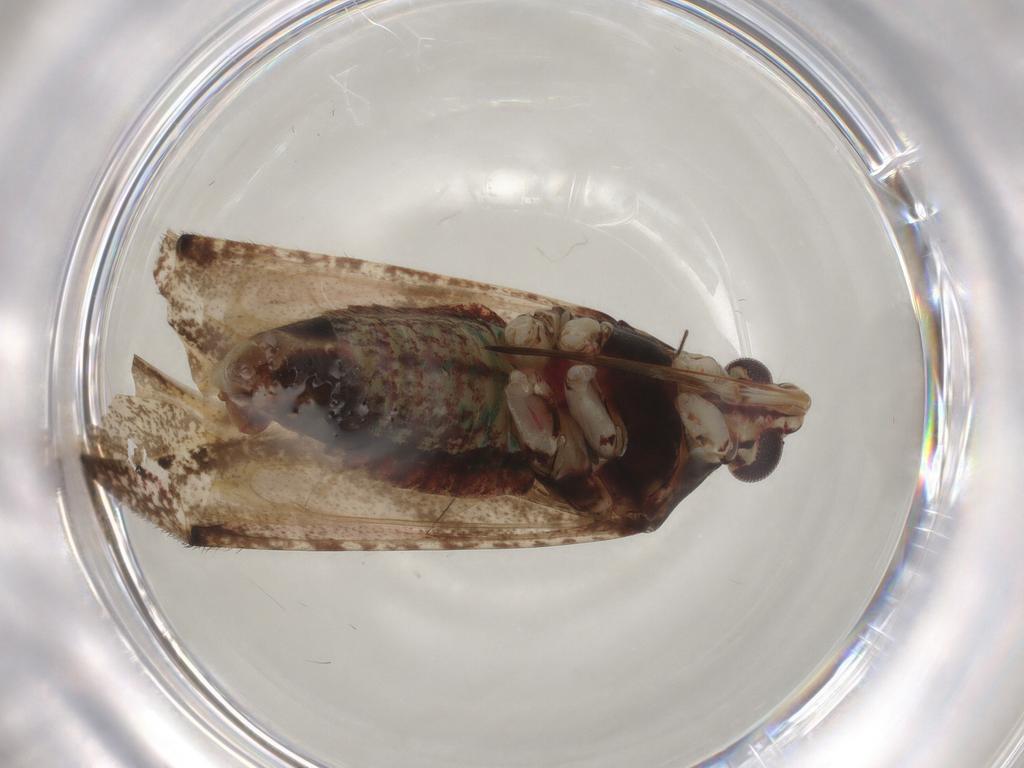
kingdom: Animalia
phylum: Arthropoda
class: Insecta
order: Hemiptera
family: Miridae
